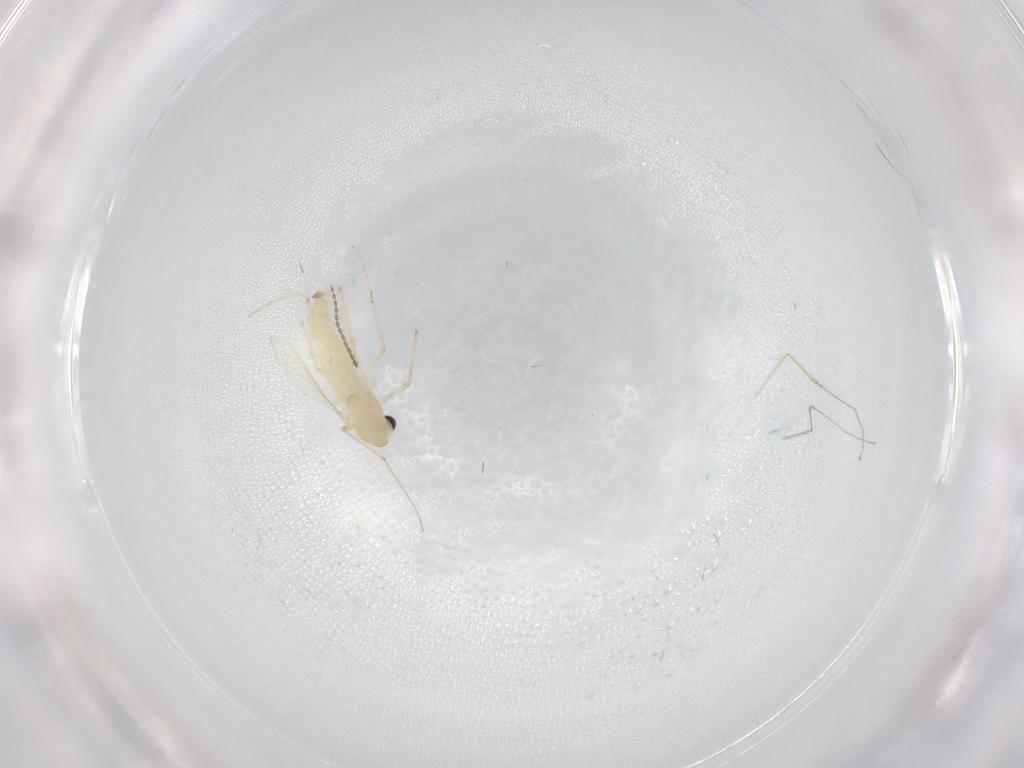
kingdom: Animalia
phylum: Arthropoda
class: Insecta
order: Diptera
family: Chironomidae
